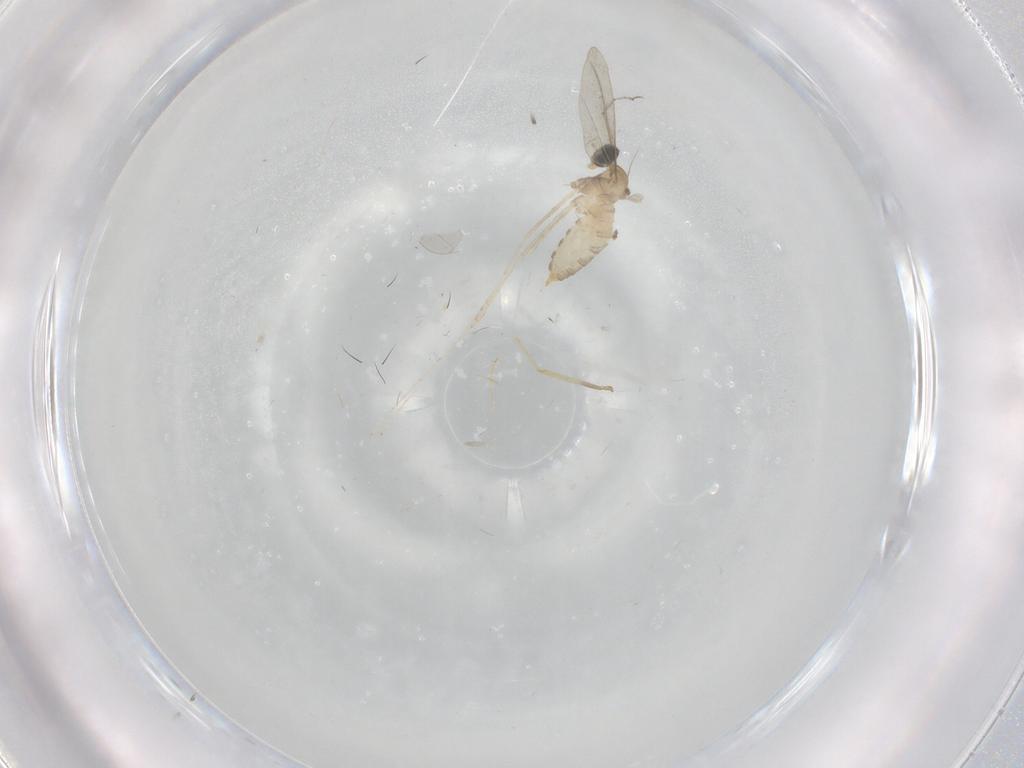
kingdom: Animalia
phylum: Arthropoda
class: Insecta
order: Diptera
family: Cecidomyiidae
